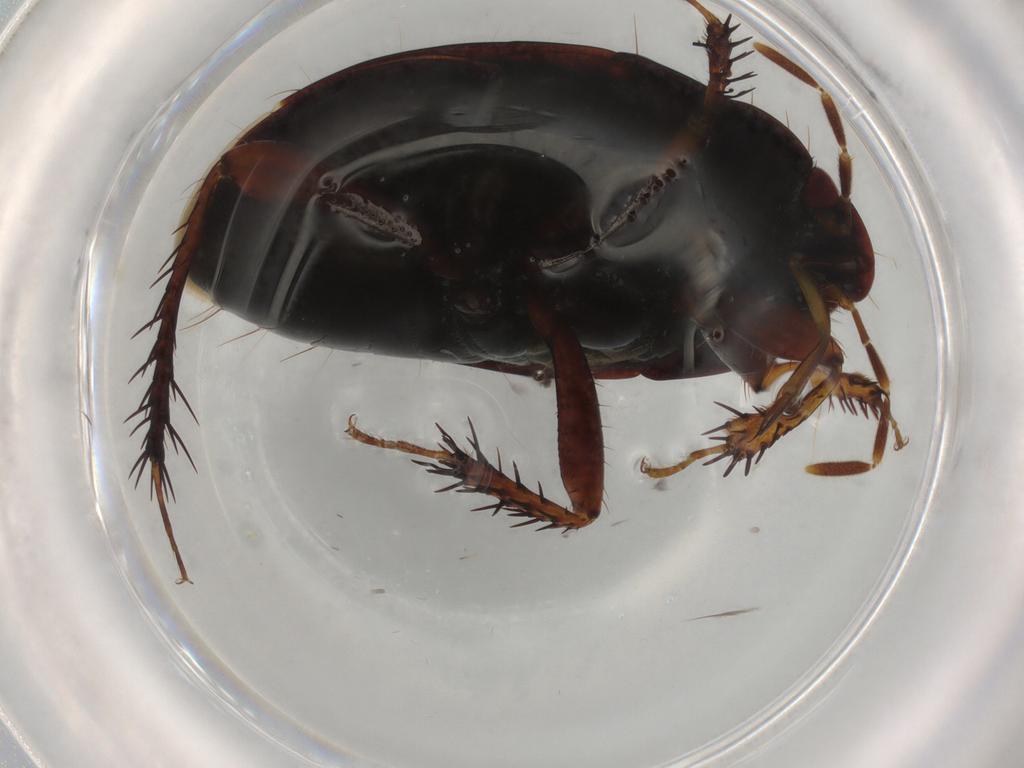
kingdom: Animalia
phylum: Arthropoda
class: Insecta
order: Hemiptera
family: Cydnidae
